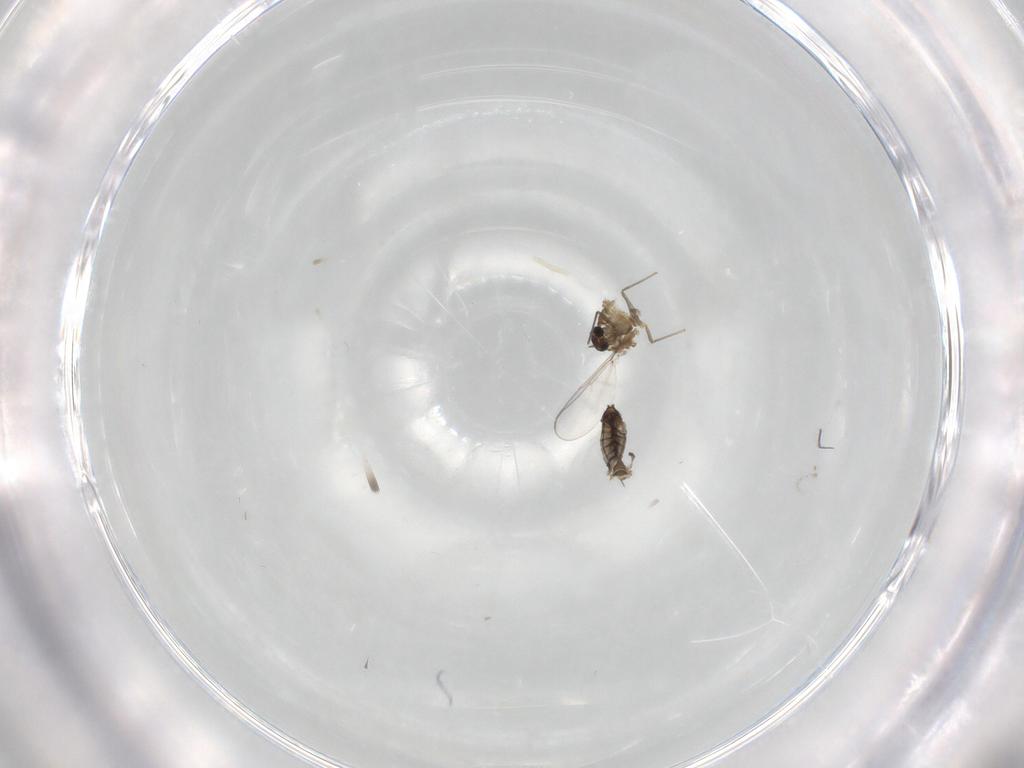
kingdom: Animalia
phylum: Arthropoda
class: Insecta
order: Diptera
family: Chironomidae
